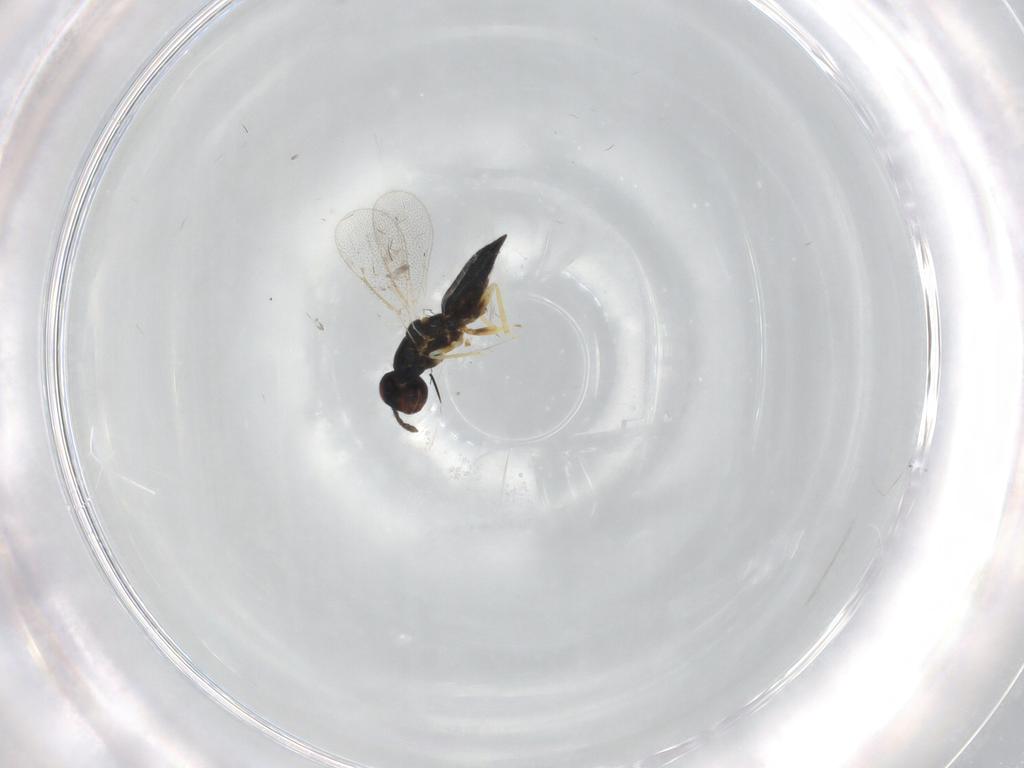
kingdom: Animalia
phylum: Arthropoda
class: Insecta
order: Hymenoptera
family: Eulophidae
